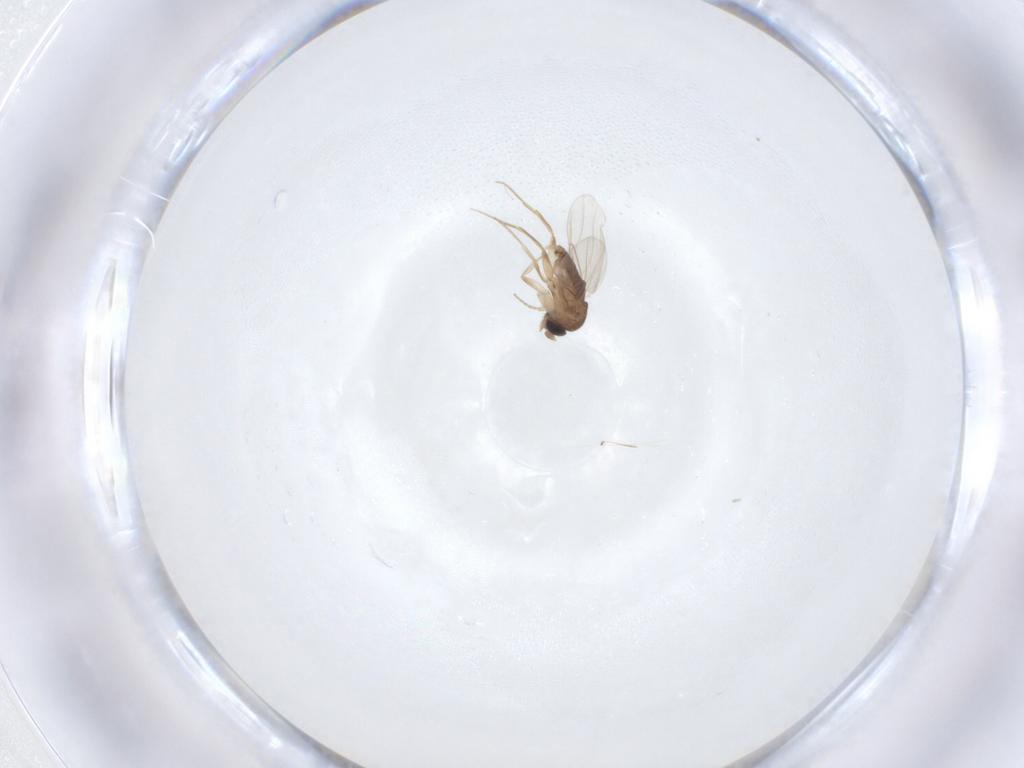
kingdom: Animalia
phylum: Arthropoda
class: Insecta
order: Diptera
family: Phoridae
